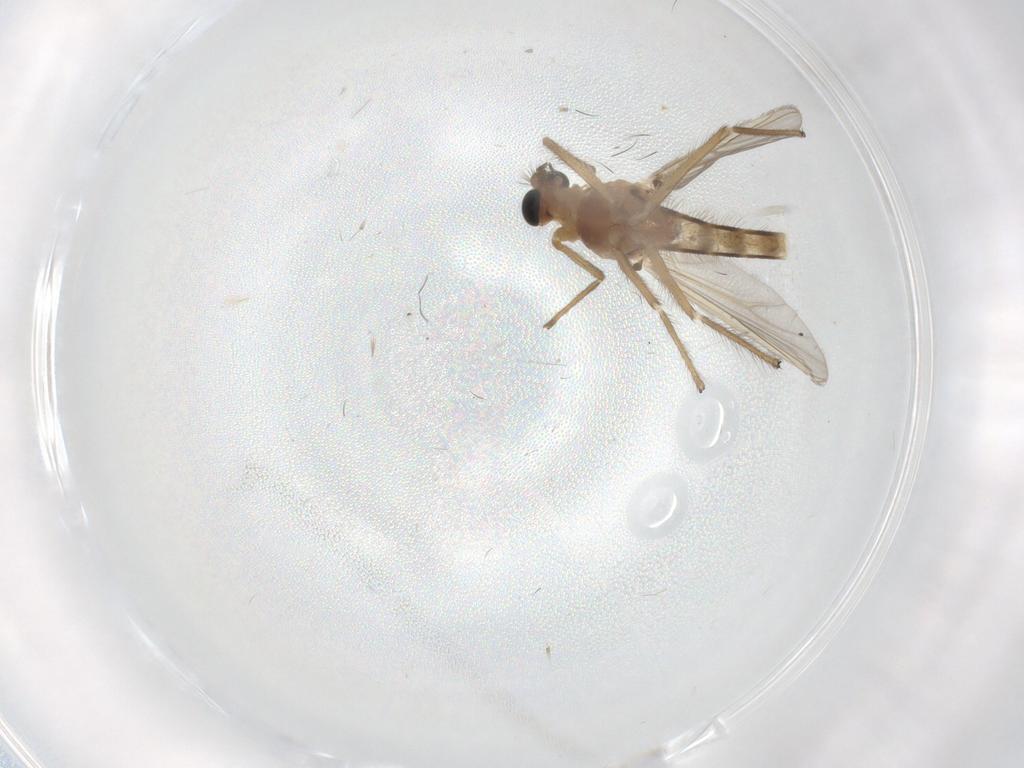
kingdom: Animalia
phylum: Arthropoda
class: Insecta
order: Diptera
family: Chironomidae
